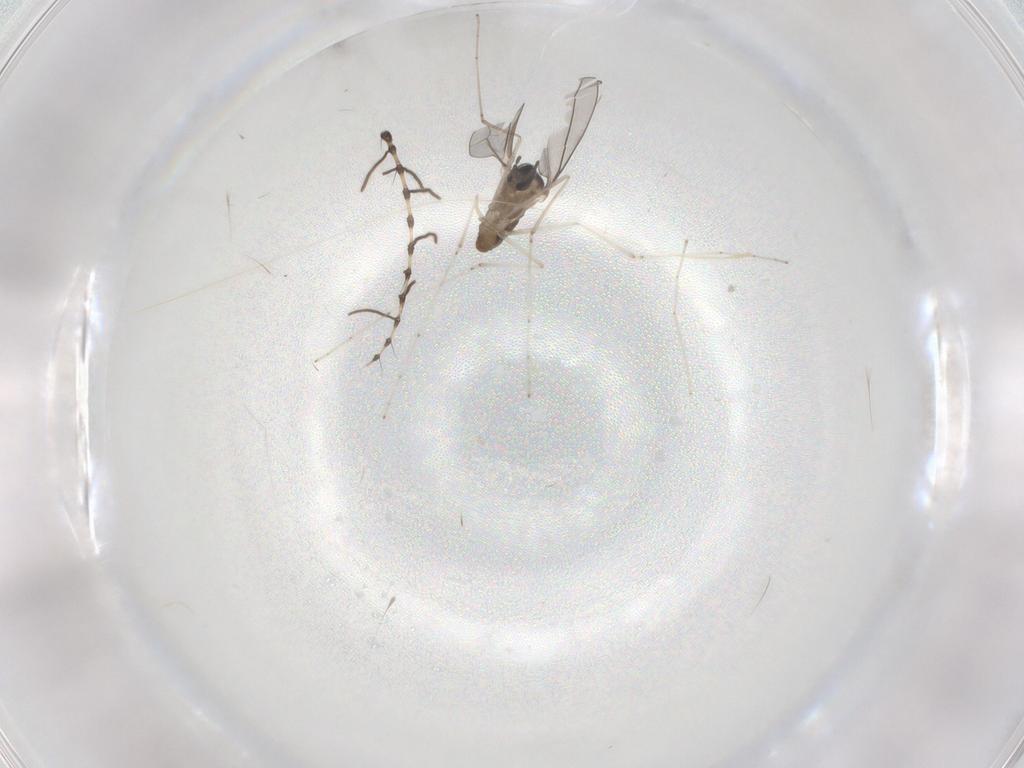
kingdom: Animalia
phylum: Arthropoda
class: Insecta
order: Diptera
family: Cecidomyiidae
